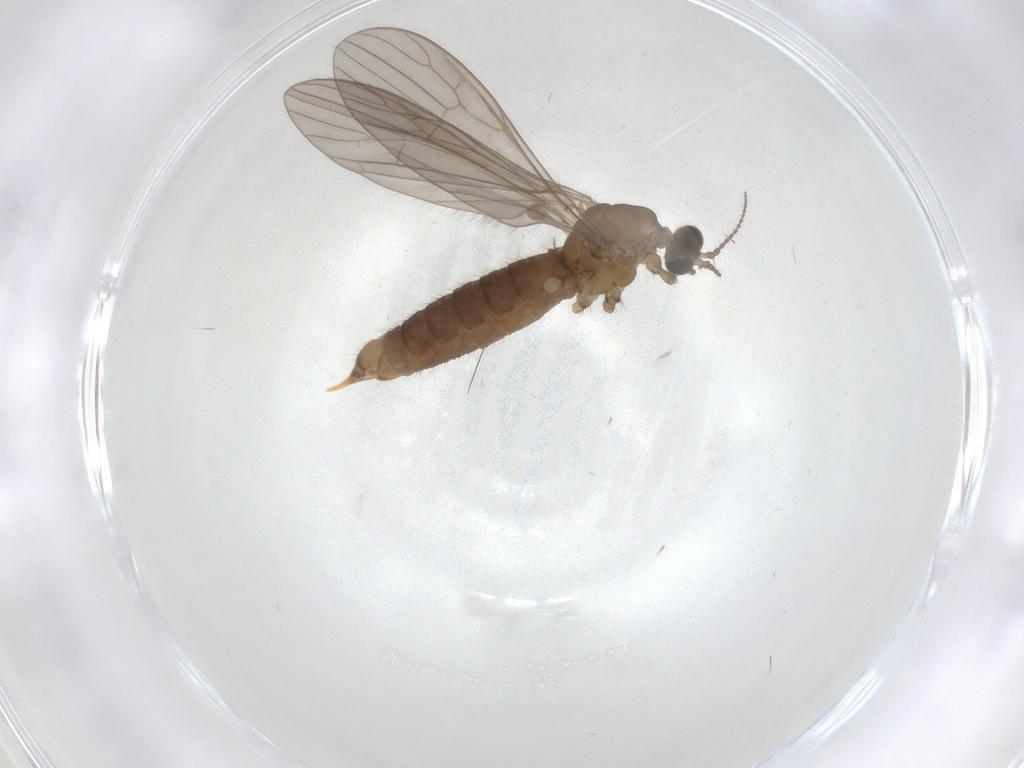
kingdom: Animalia
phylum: Arthropoda
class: Insecta
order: Diptera
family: Limoniidae
